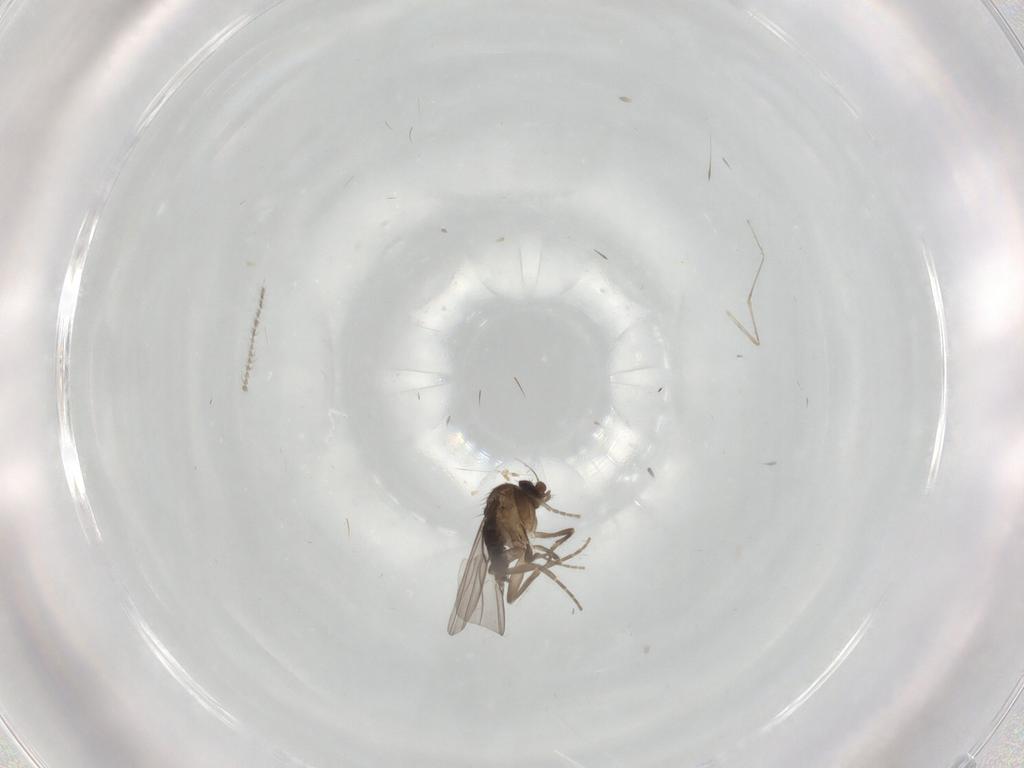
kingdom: Animalia
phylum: Arthropoda
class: Insecta
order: Diptera
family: Phoridae
